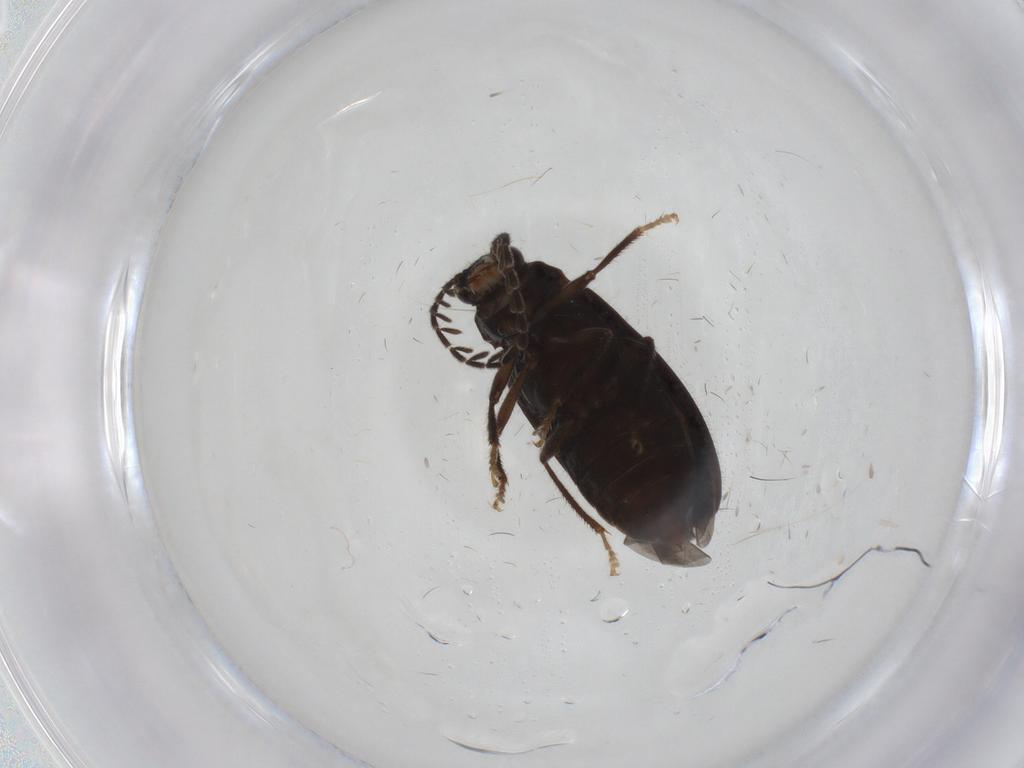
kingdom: Animalia
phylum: Arthropoda
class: Insecta
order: Coleoptera
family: Ptilodactylidae
